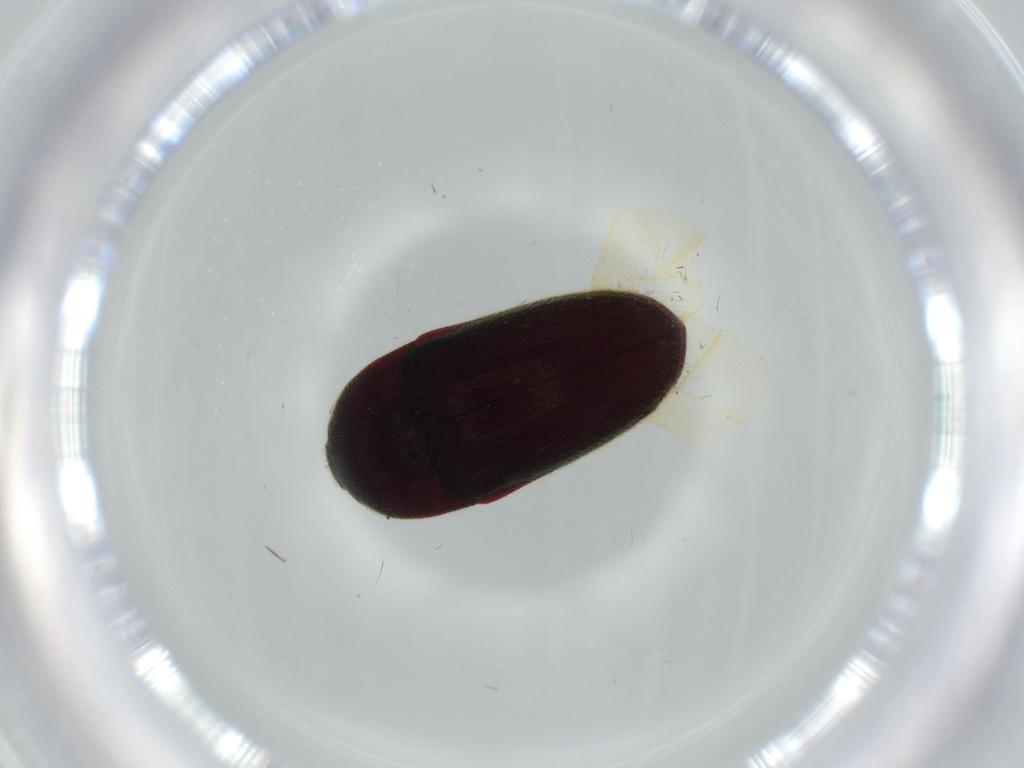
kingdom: Animalia
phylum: Arthropoda
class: Insecta
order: Coleoptera
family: Throscidae
